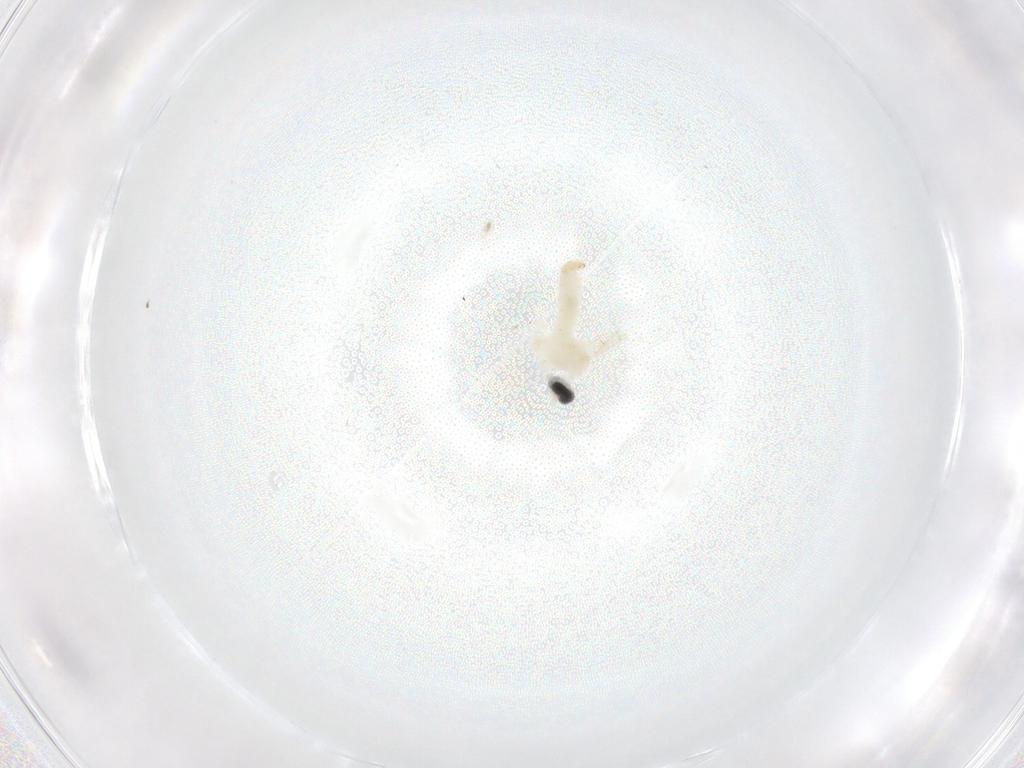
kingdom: Animalia
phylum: Arthropoda
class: Insecta
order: Diptera
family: Cecidomyiidae
